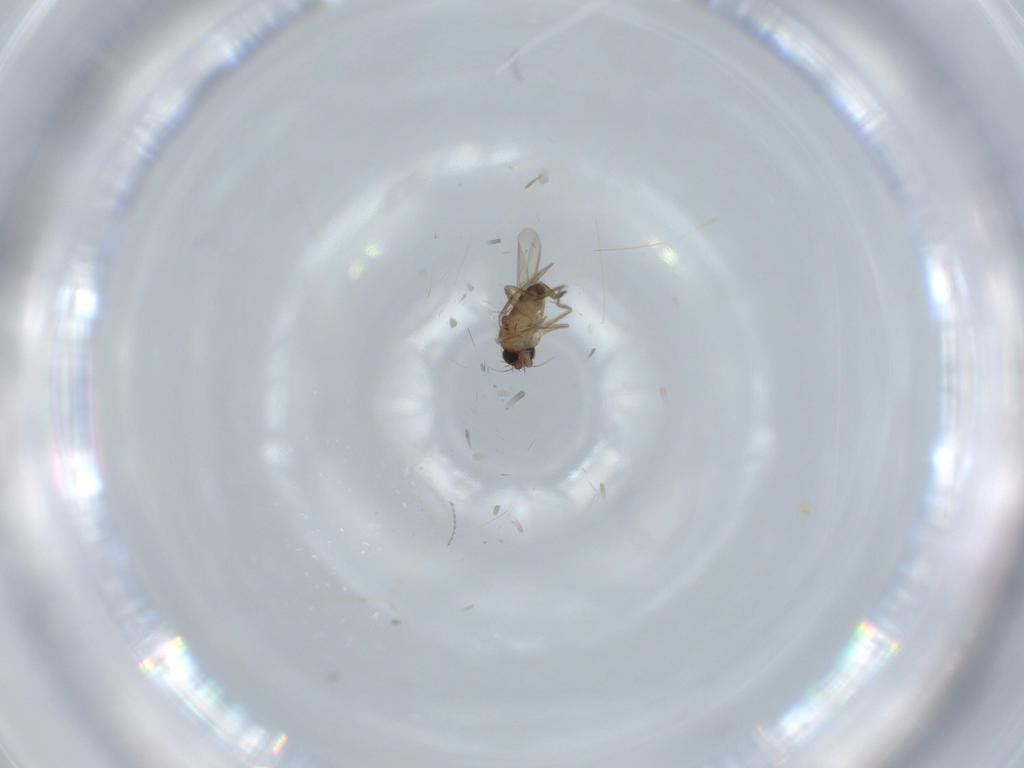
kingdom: Animalia
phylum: Arthropoda
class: Insecta
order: Diptera
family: Phoridae
